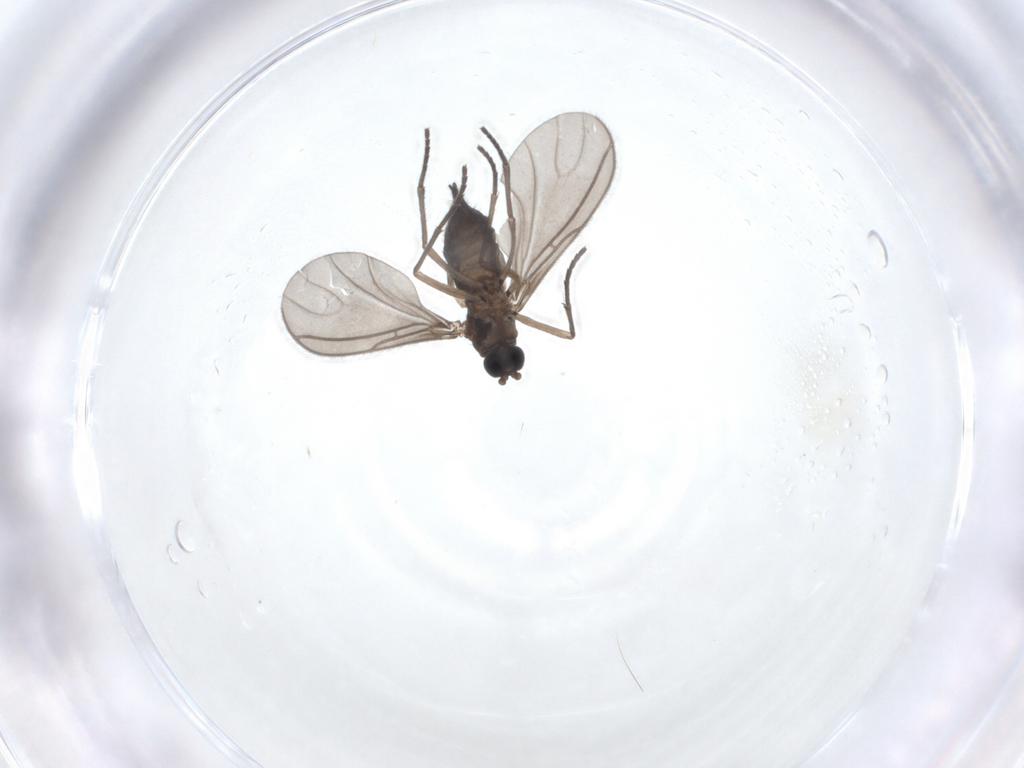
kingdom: Animalia
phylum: Arthropoda
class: Insecta
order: Diptera
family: Sciaridae
